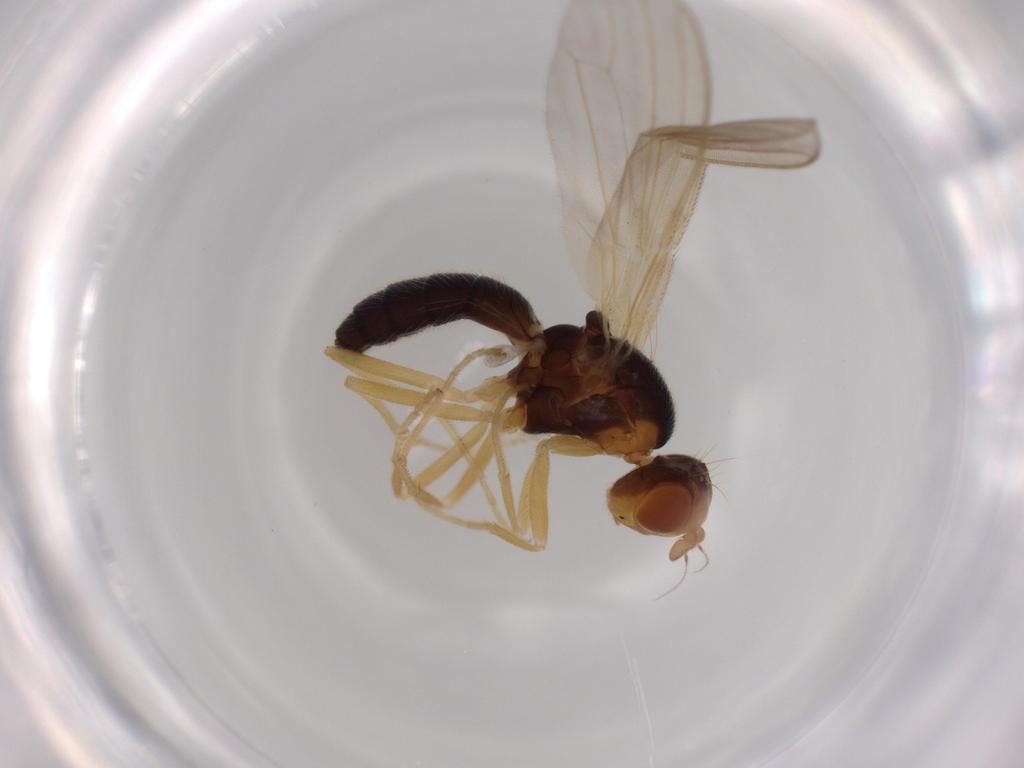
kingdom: Animalia
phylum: Arthropoda
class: Insecta
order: Diptera
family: Psilidae
